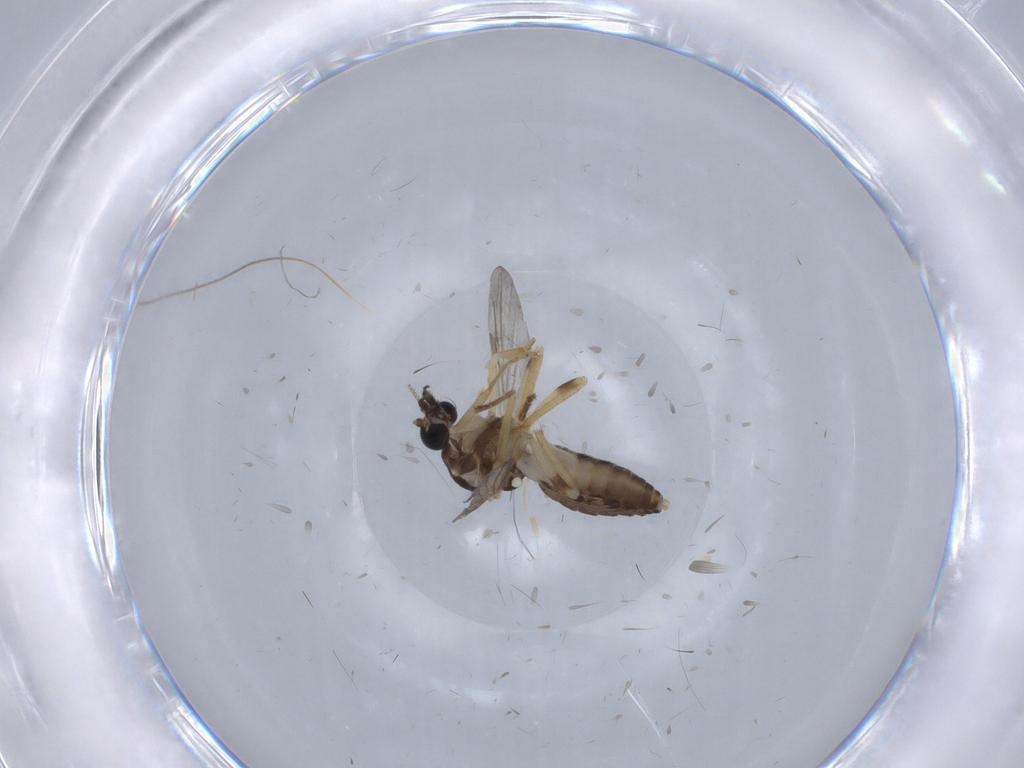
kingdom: Animalia
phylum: Arthropoda
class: Insecta
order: Diptera
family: Ceratopogonidae
